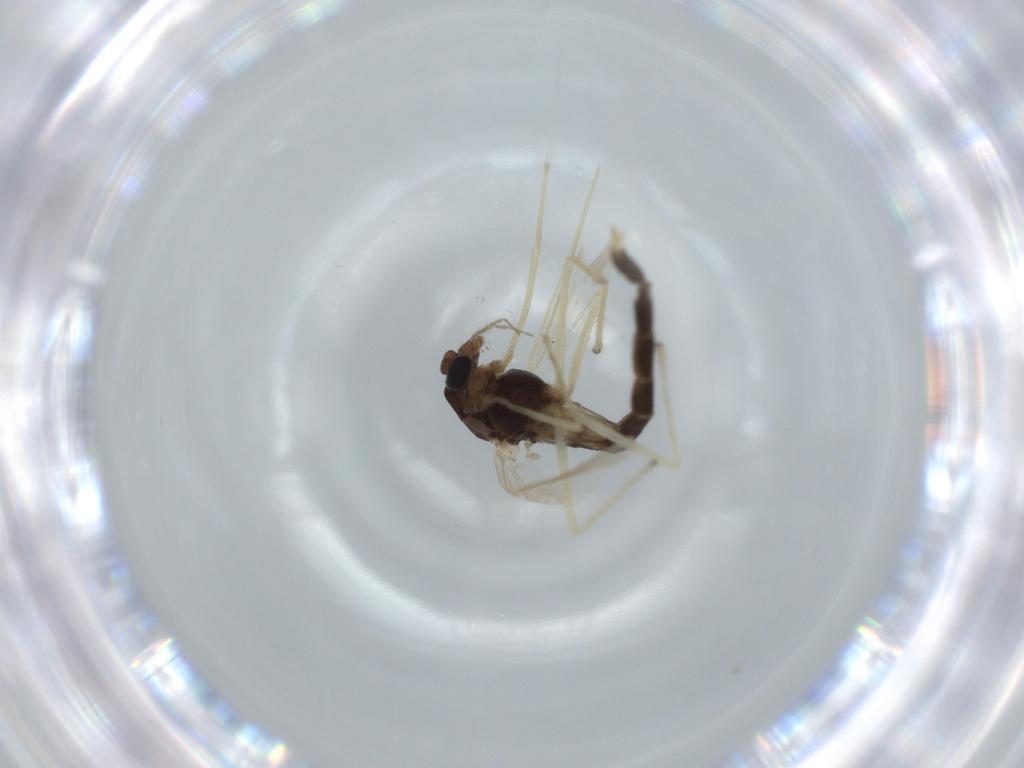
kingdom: Animalia
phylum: Arthropoda
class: Insecta
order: Diptera
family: Chironomidae
